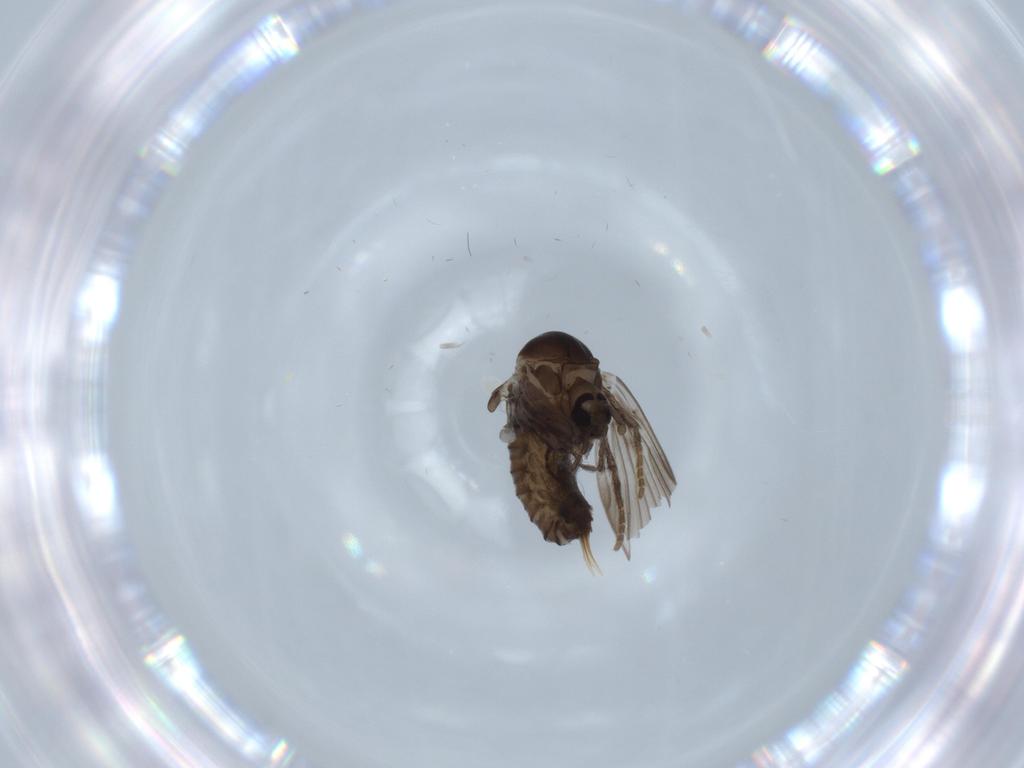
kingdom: Animalia
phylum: Arthropoda
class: Insecta
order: Diptera
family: Psychodidae
